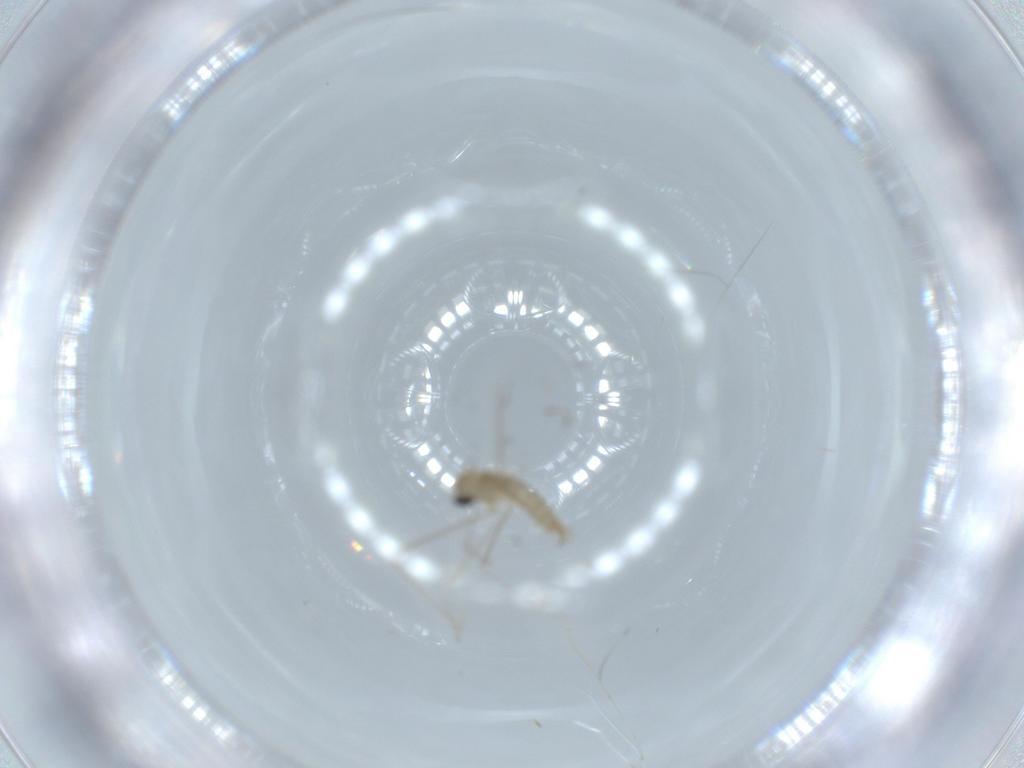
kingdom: Animalia
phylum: Arthropoda
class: Insecta
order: Diptera
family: Cecidomyiidae
